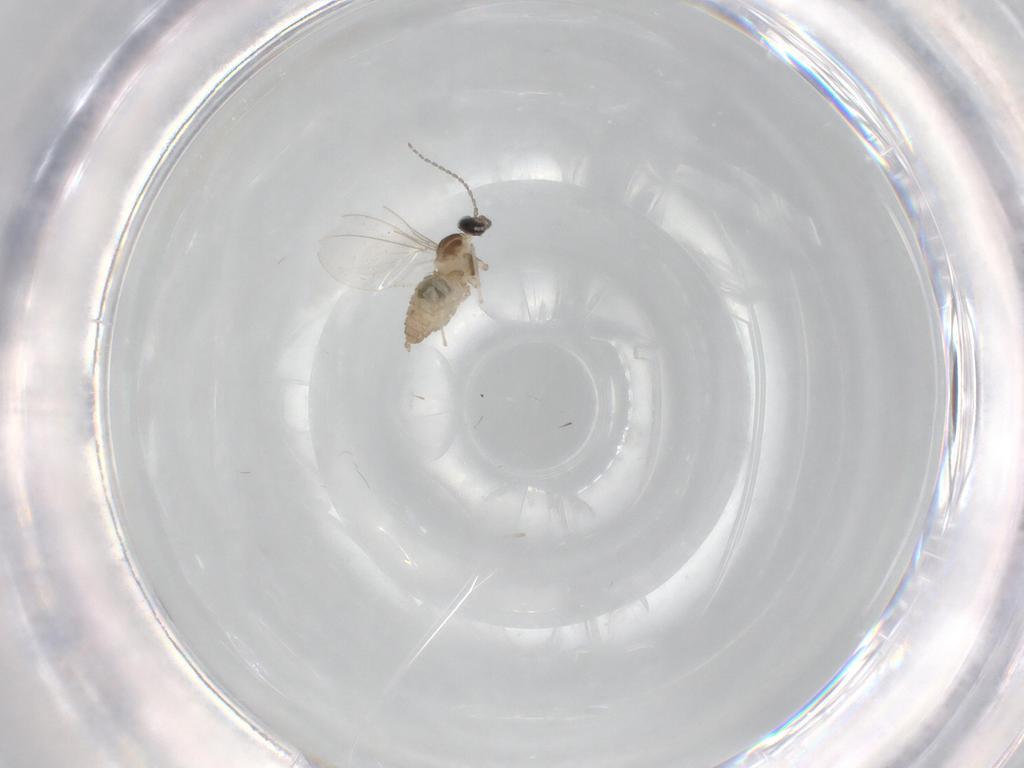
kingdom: Animalia
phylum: Arthropoda
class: Insecta
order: Diptera
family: Cecidomyiidae
